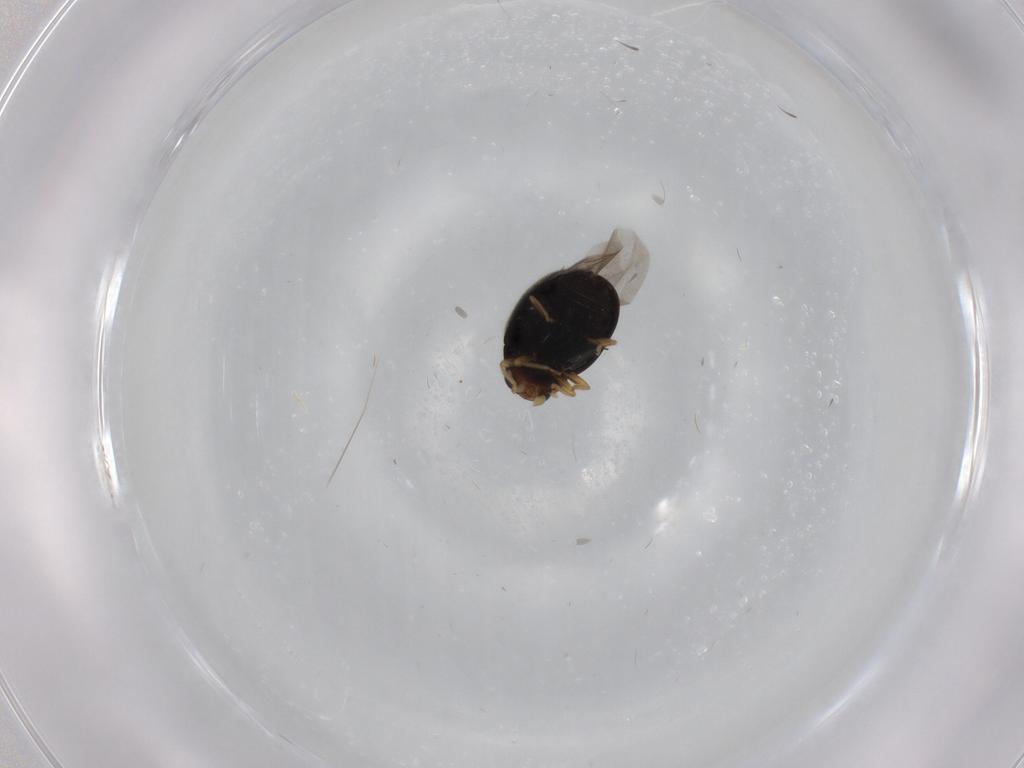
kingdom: Animalia
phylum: Arthropoda
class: Insecta
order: Coleoptera
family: Coccinellidae
